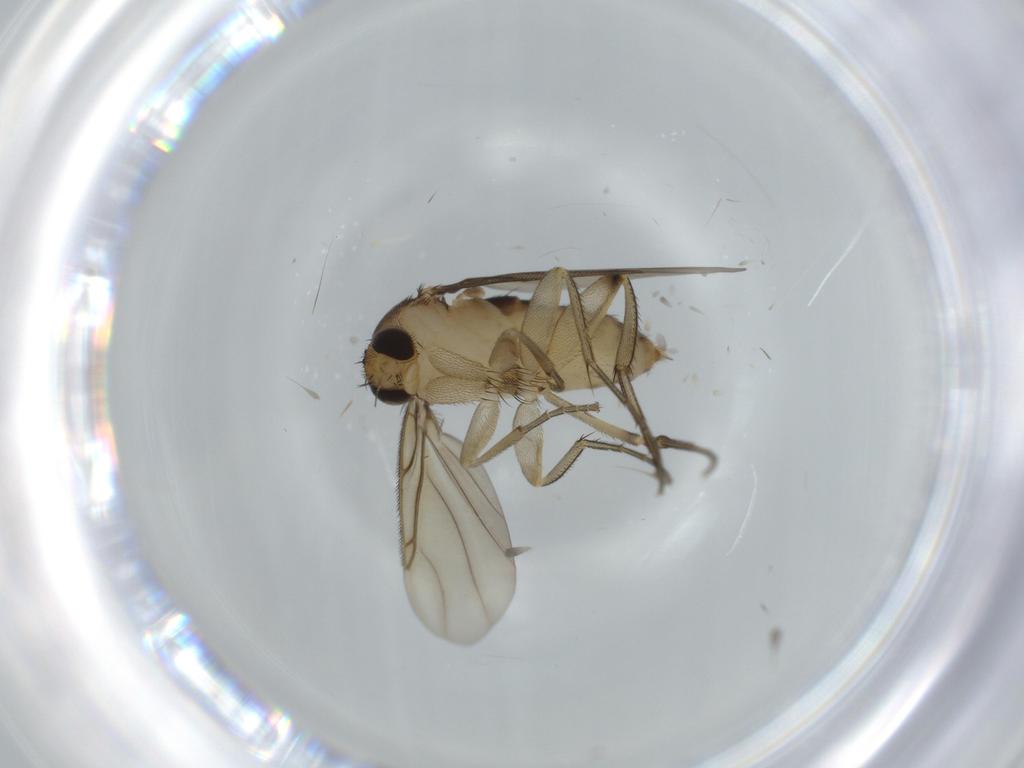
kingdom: Animalia
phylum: Arthropoda
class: Insecta
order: Diptera
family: Phoridae
